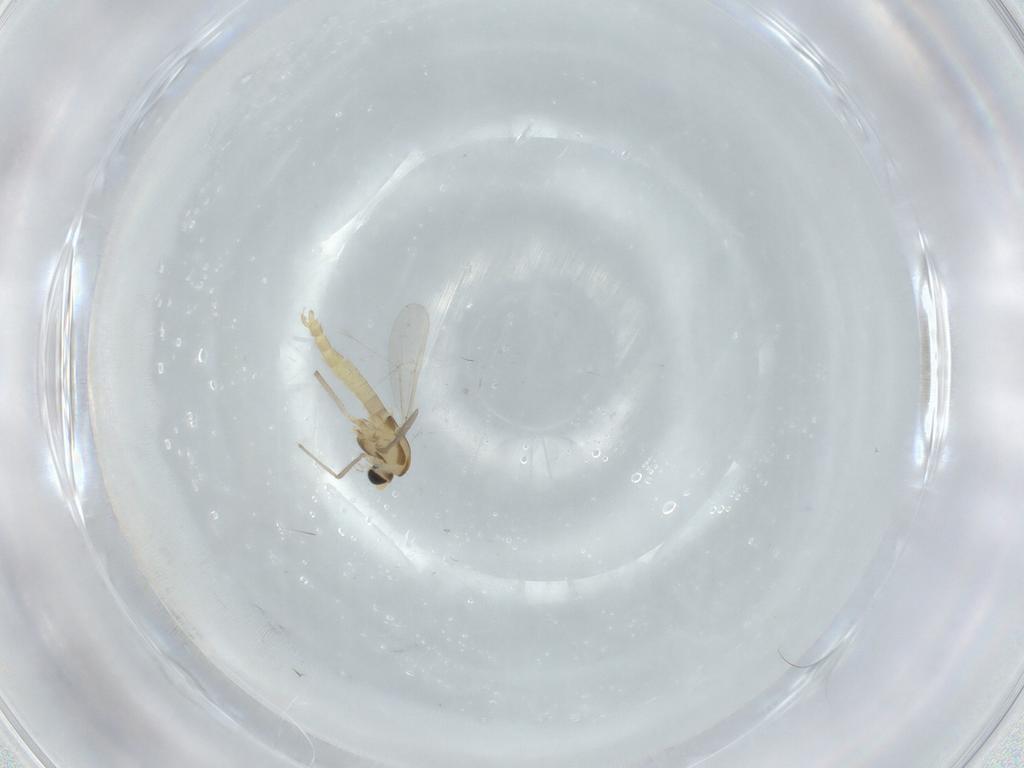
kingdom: Animalia
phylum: Arthropoda
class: Insecta
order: Diptera
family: Cecidomyiidae
